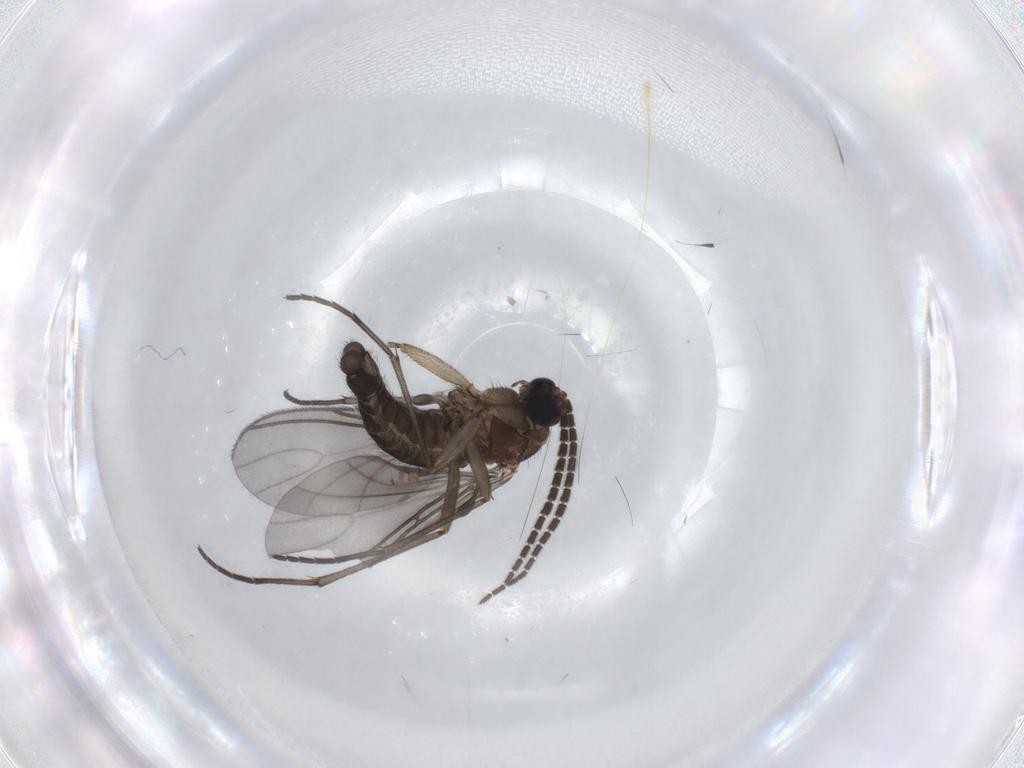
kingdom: Animalia
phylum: Arthropoda
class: Insecta
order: Diptera
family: Sciaridae
